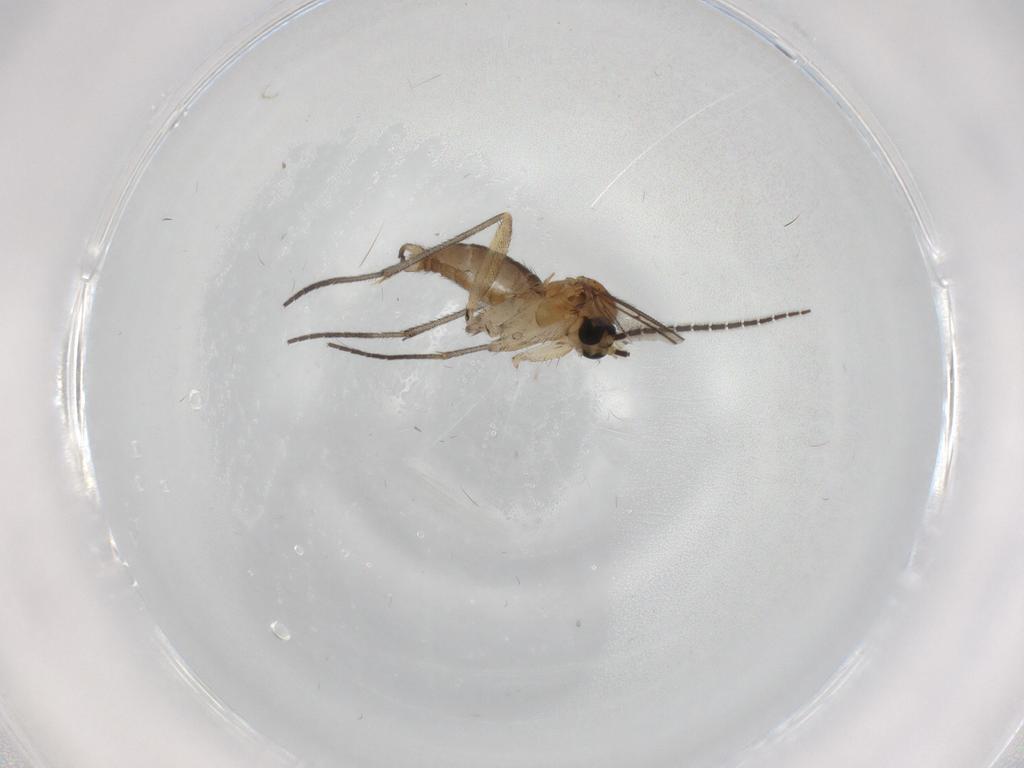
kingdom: Animalia
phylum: Arthropoda
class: Insecta
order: Diptera
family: Sciaridae
